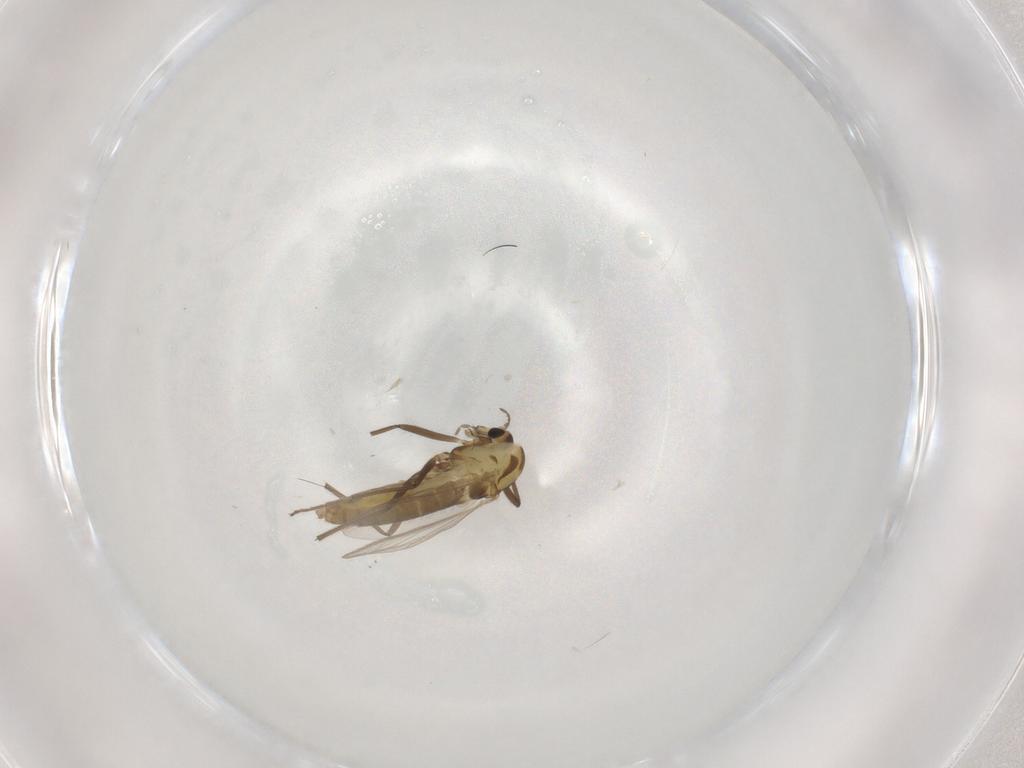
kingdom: Animalia
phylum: Arthropoda
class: Insecta
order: Diptera
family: Chironomidae
